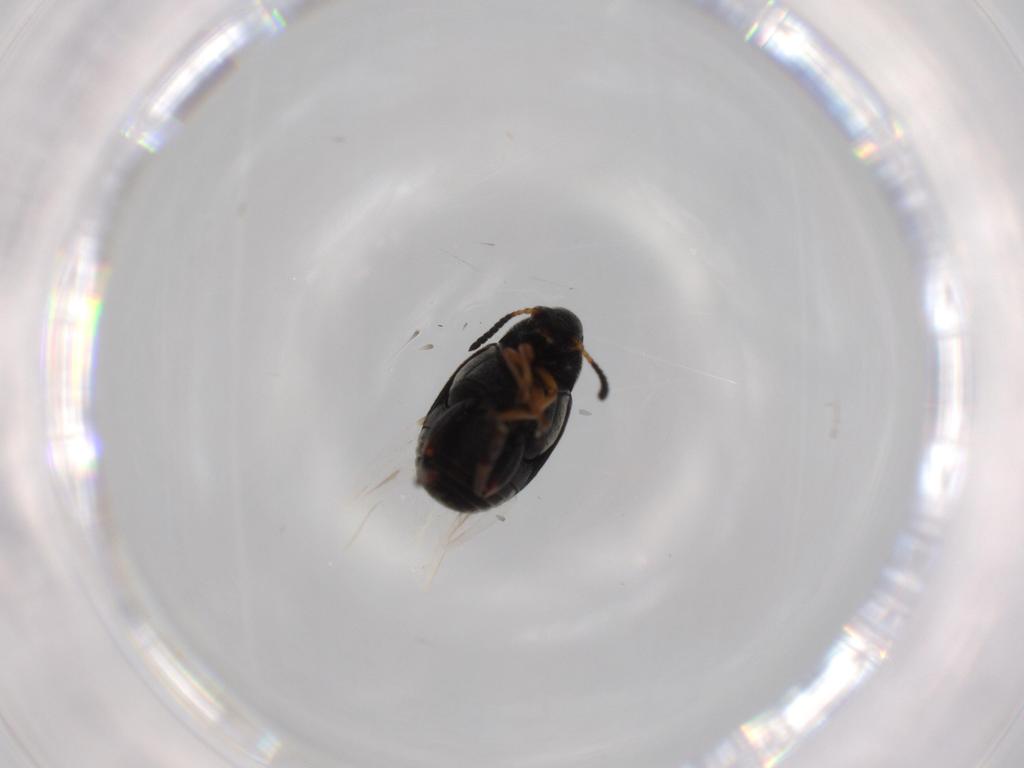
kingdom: Animalia
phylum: Arthropoda
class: Insecta
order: Coleoptera
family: Chrysomelidae
